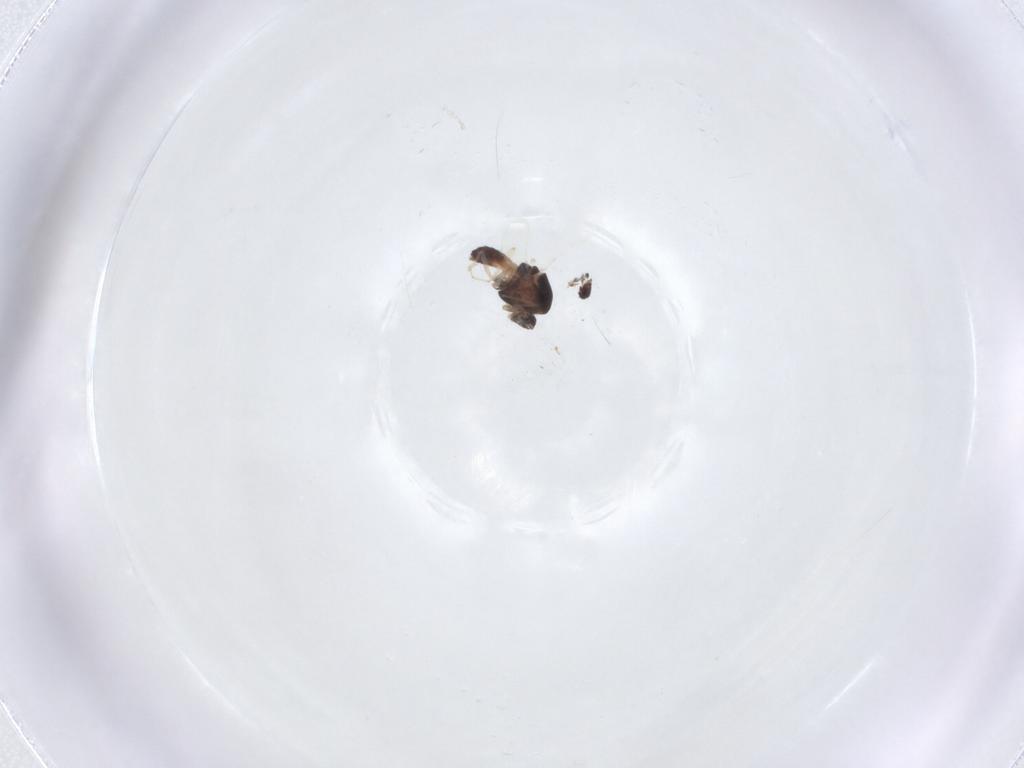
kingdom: Animalia
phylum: Arthropoda
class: Insecta
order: Diptera
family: Chironomidae
